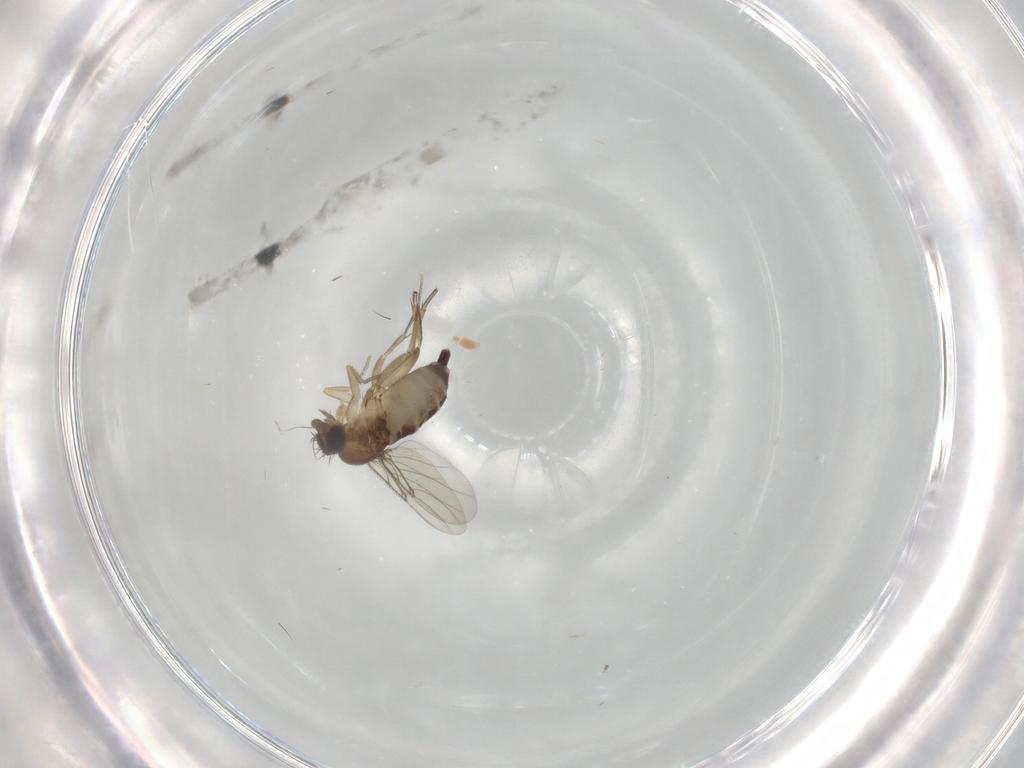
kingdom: Animalia
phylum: Arthropoda
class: Insecta
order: Diptera
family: Phoridae
